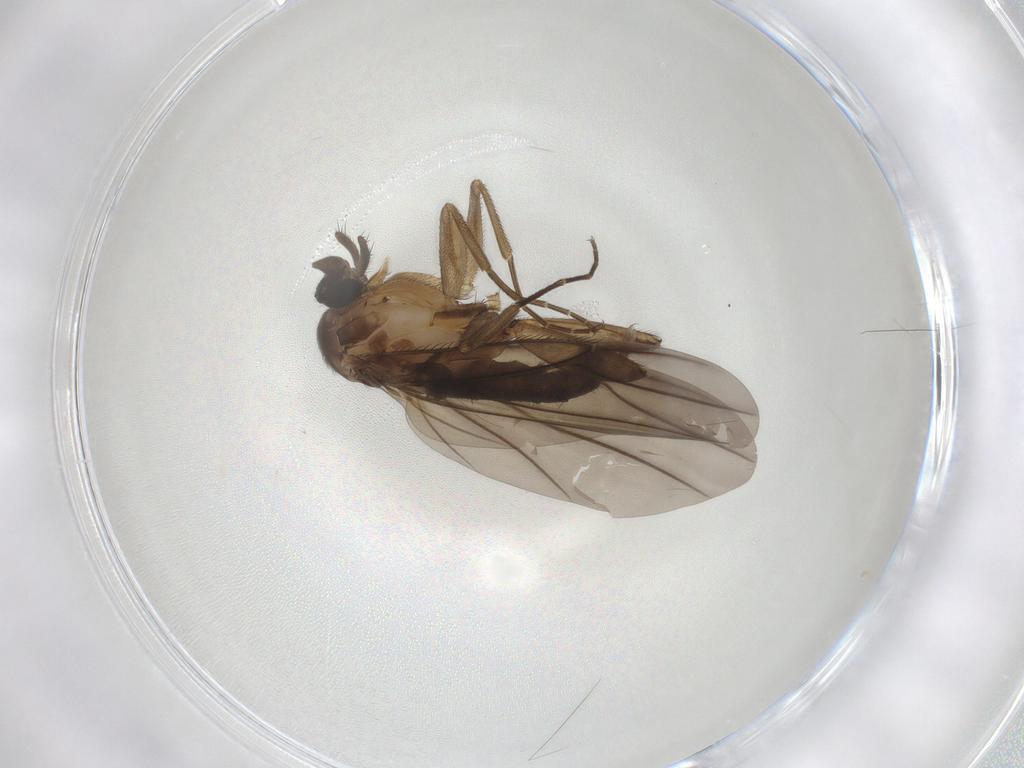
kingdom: Animalia
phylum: Arthropoda
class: Insecta
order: Diptera
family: Phoridae
